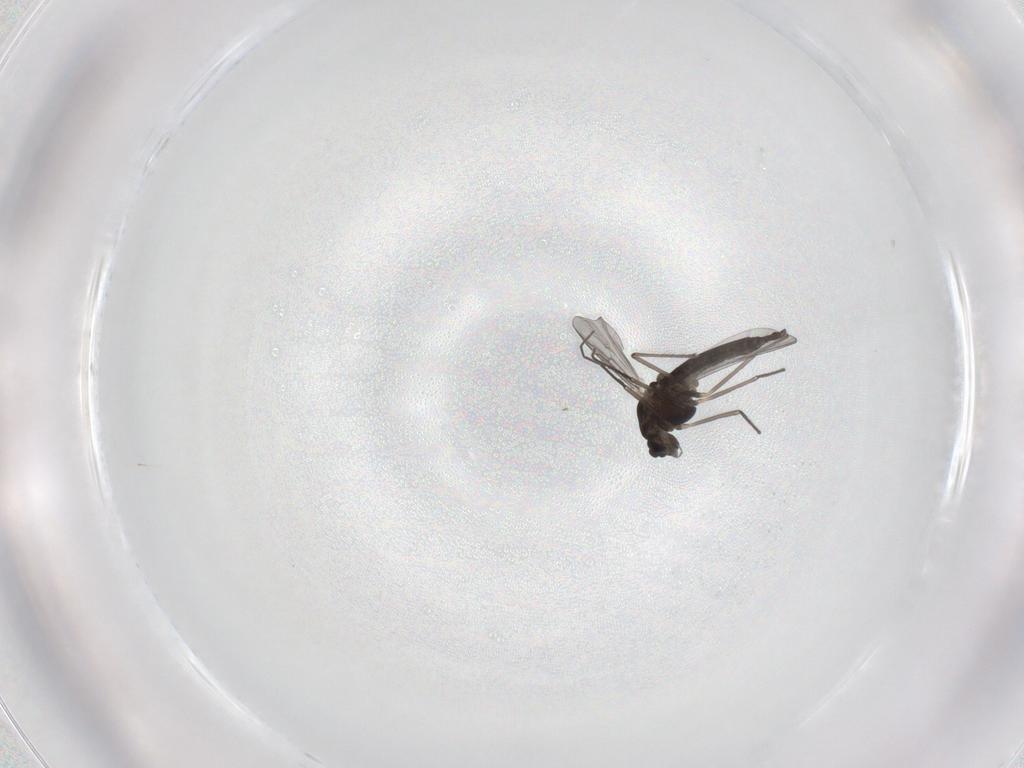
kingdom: Animalia
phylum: Arthropoda
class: Insecta
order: Diptera
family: Chironomidae
